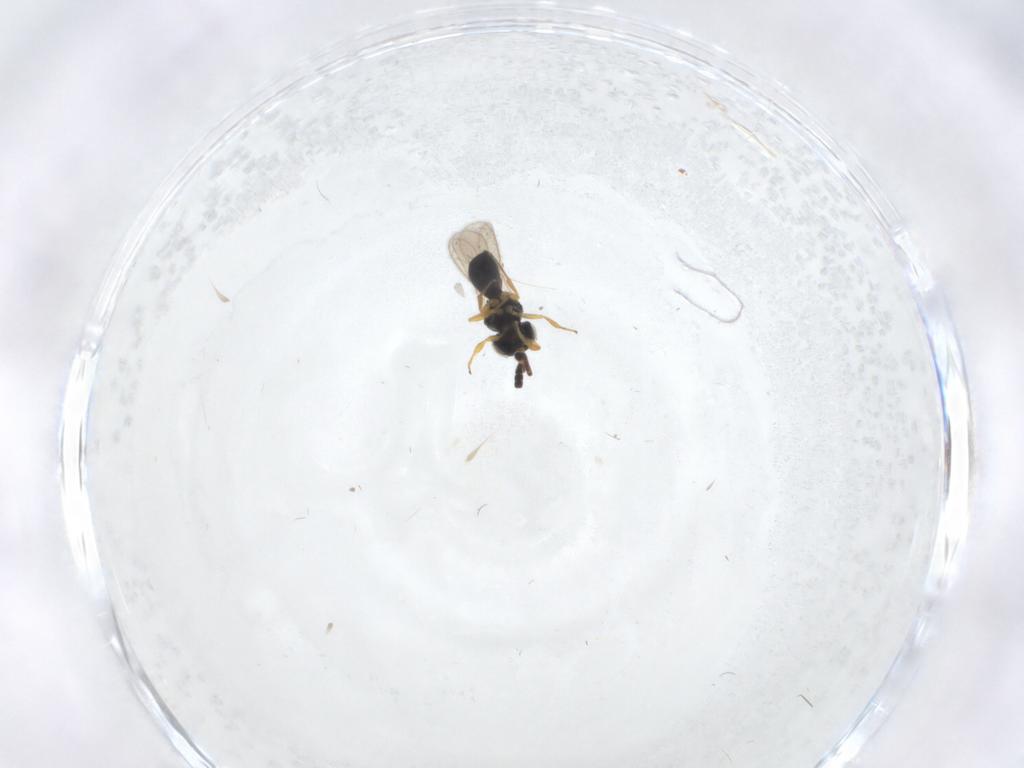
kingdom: Animalia
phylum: Arthropoda
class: Insecta
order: Hymenoptera
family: Scelionidae
